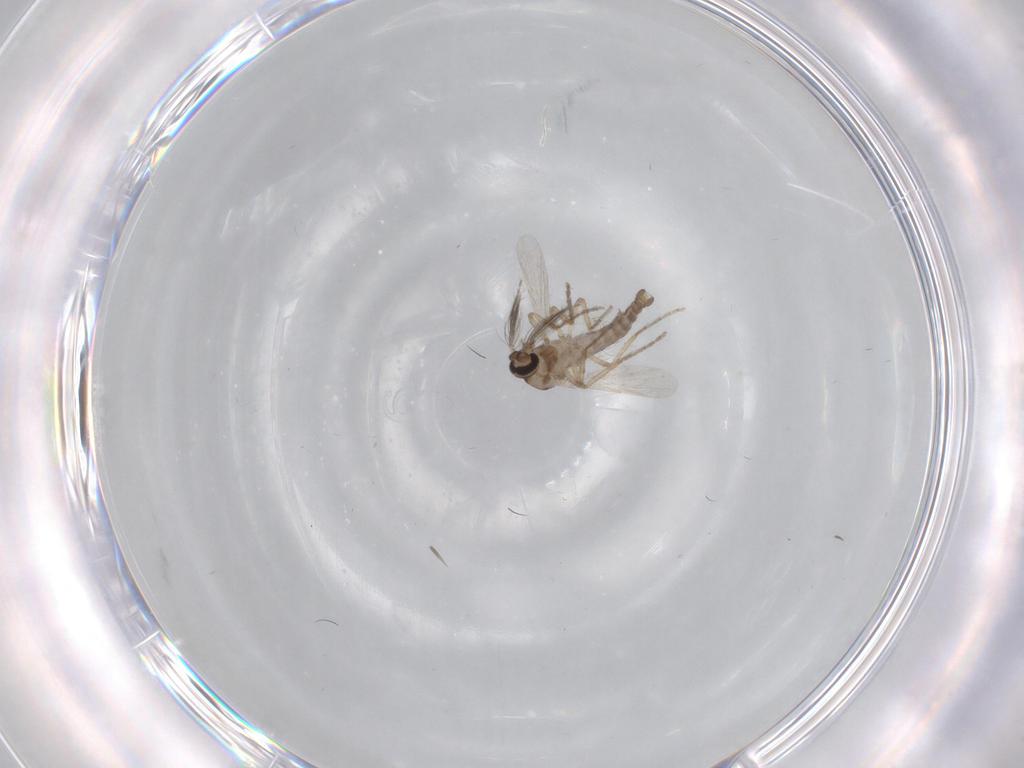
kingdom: Animalia
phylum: Arthropoda
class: Insecta
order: Diptera
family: Ceratopogonidae
